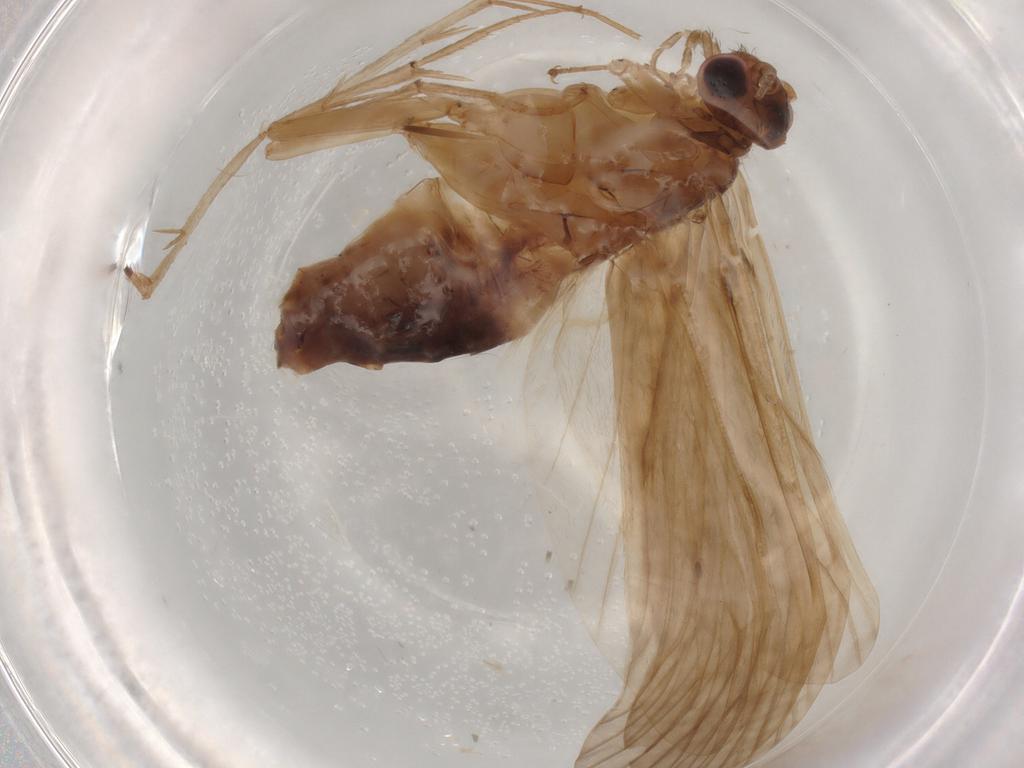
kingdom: Animalia
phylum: Arthropoda
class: Insecta
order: Trichoptera
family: Hydropsychidae
